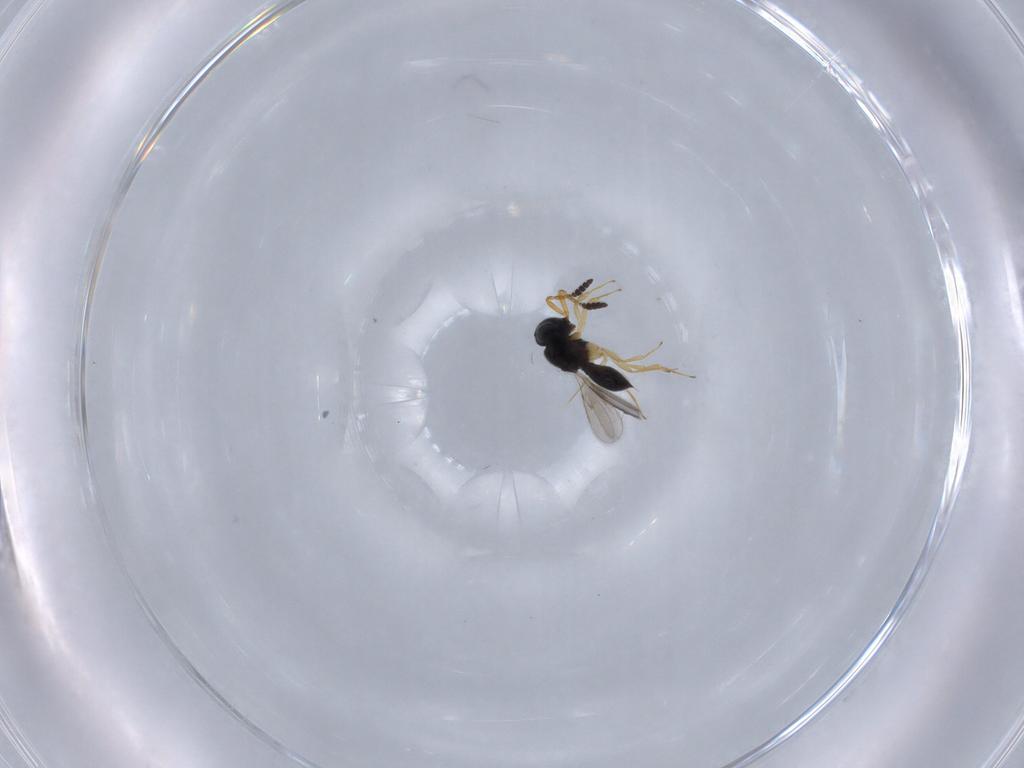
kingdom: Animalia
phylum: Arthropoda
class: Insecta
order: Hymenoptera
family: Scelionidae
